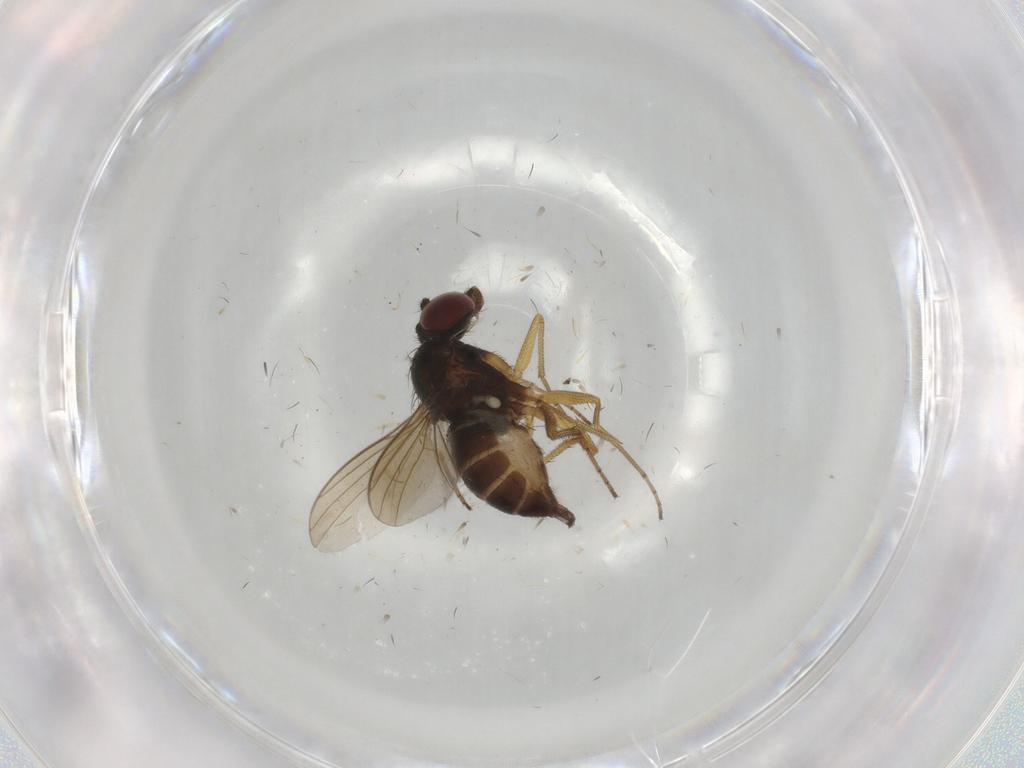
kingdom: Animalia
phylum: Arthropoda
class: Insecta
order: Diptera
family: Dolichopodidae
